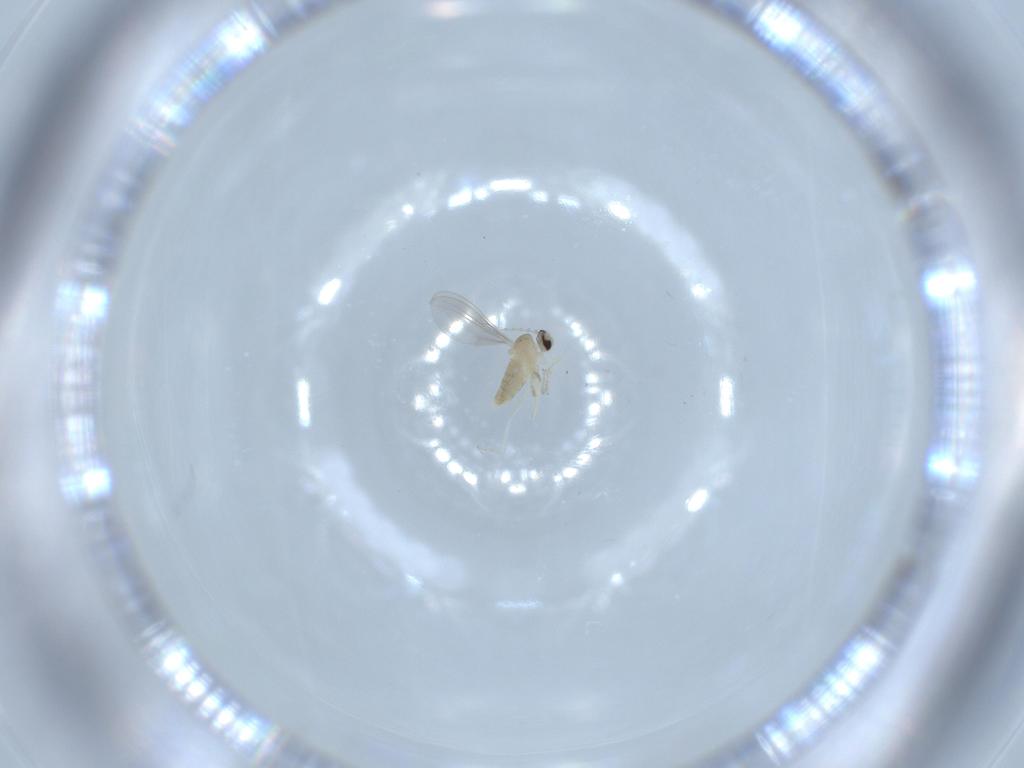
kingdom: Animalia
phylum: Arthropoda
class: Insecta
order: Diptera
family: Cecidomyiidae
